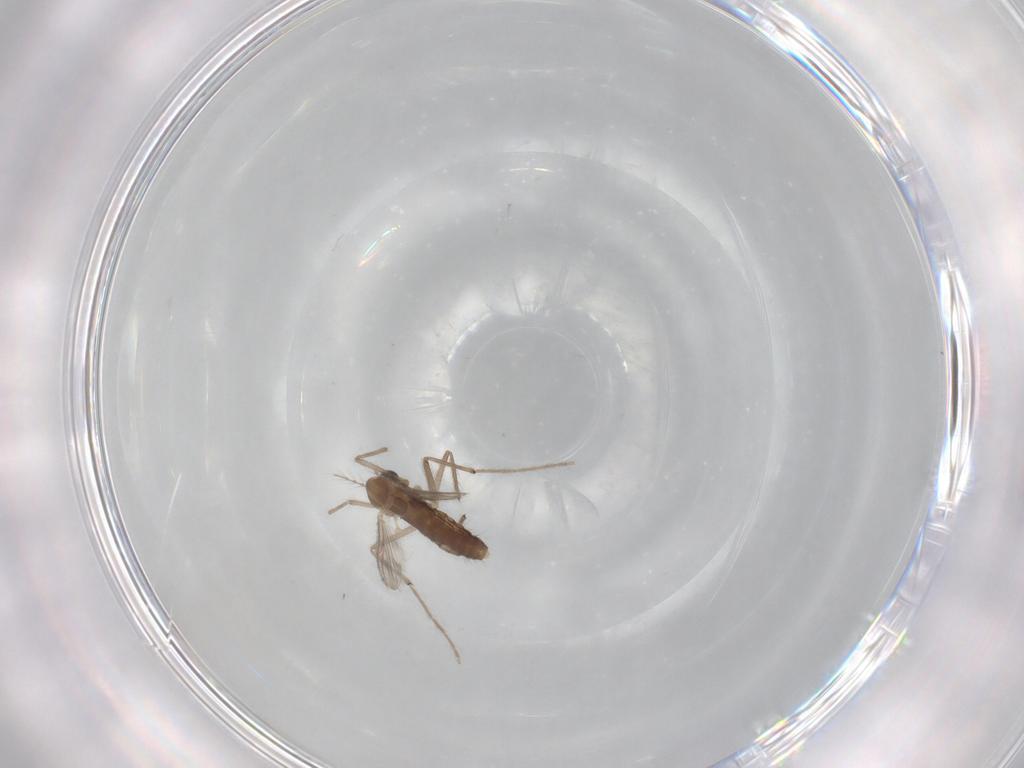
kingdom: Animalia
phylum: Arthropoda
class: Insecta
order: Diptera
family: Chironomidae
